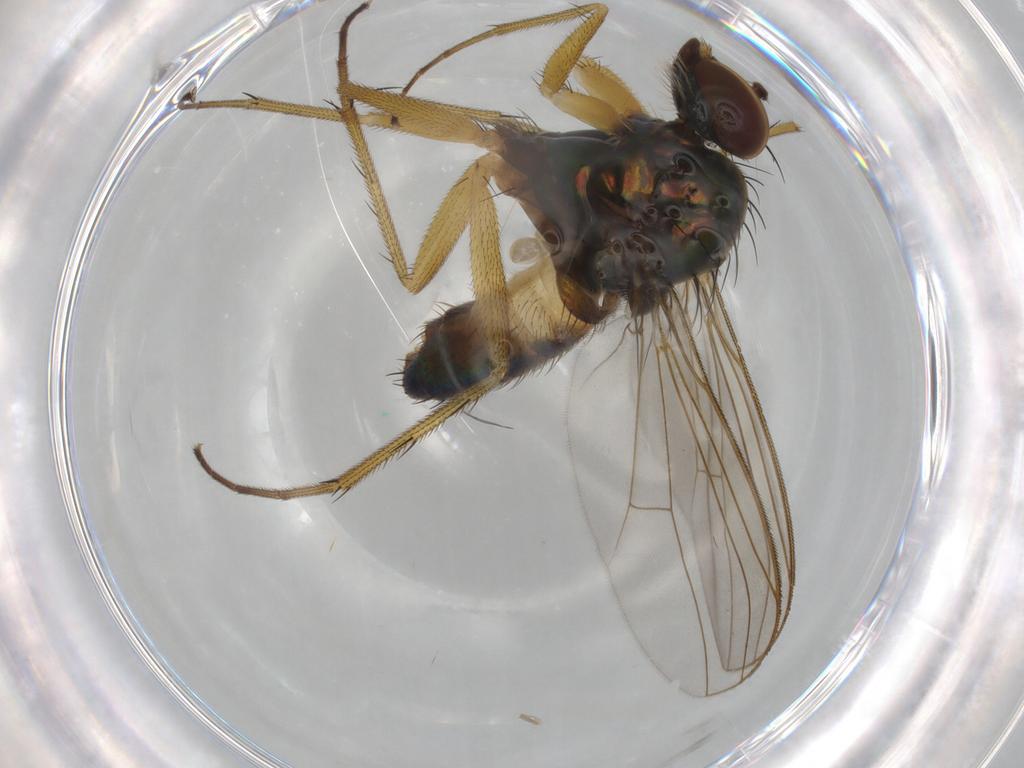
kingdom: Animalia
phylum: Arthropoda
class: Insecta
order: Diptera
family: Cecidomyiidae
